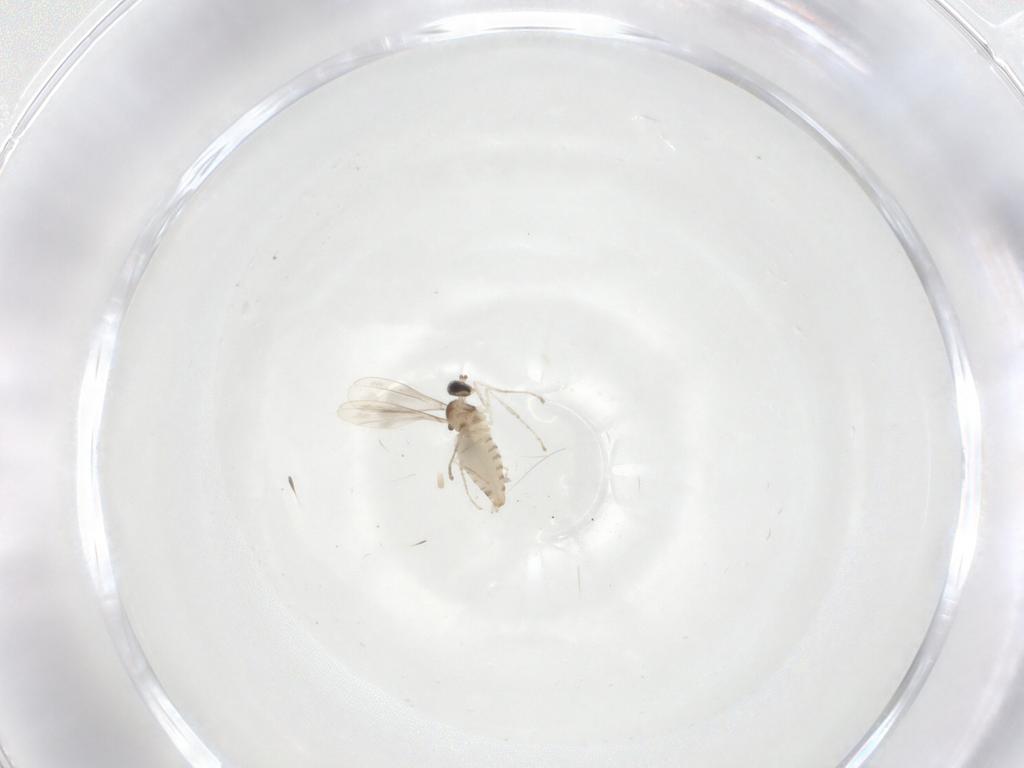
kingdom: Animalia
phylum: Arthropoda
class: Insecta
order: Diptera
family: Cecidomyiidae
